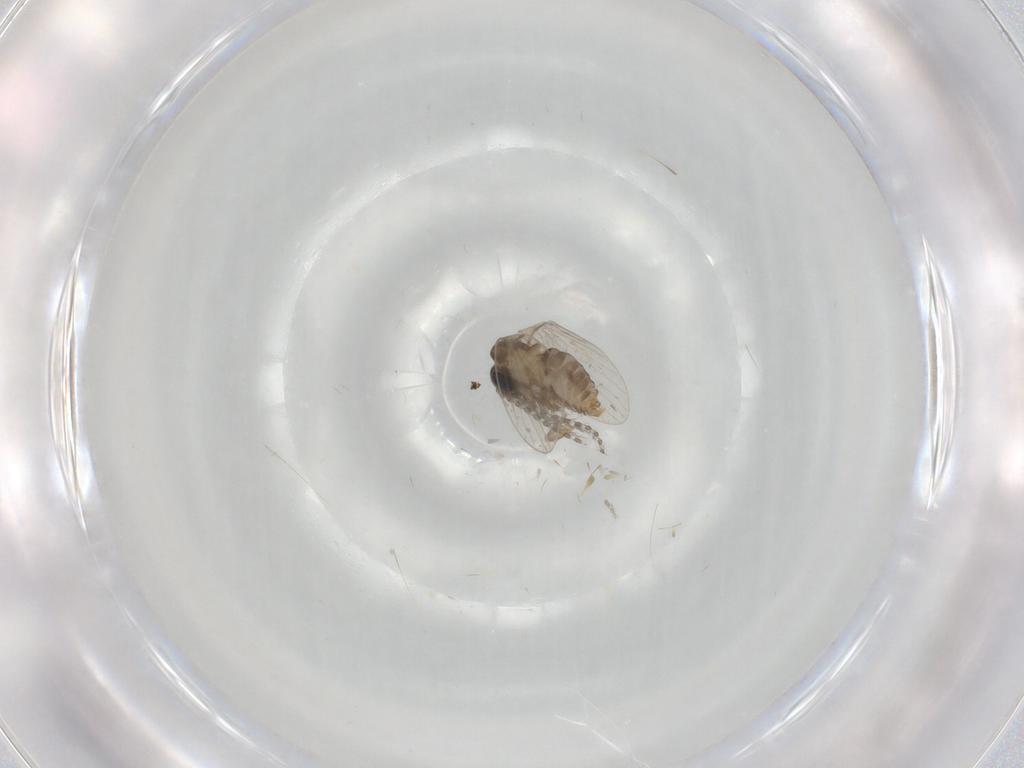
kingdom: Animalia
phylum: Arthropoda
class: Insecta
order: Diptera
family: Psychodidae
